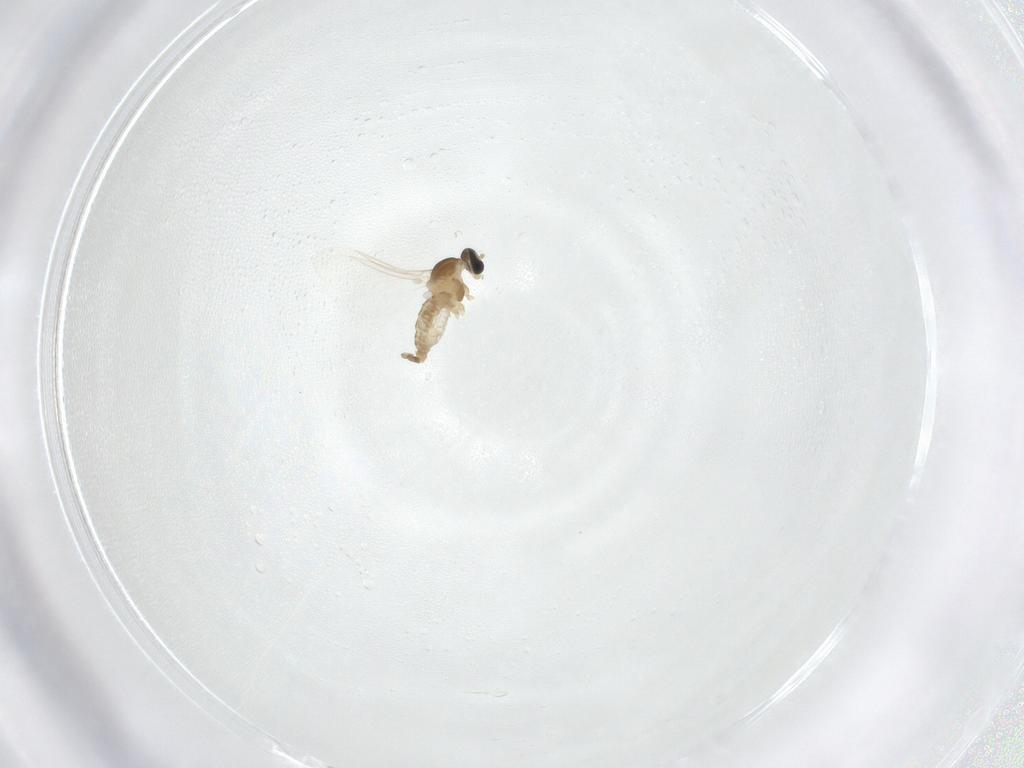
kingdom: Animalia
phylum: Arthropoda
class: Insecta
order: Diptera
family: Cecidomyiidae
